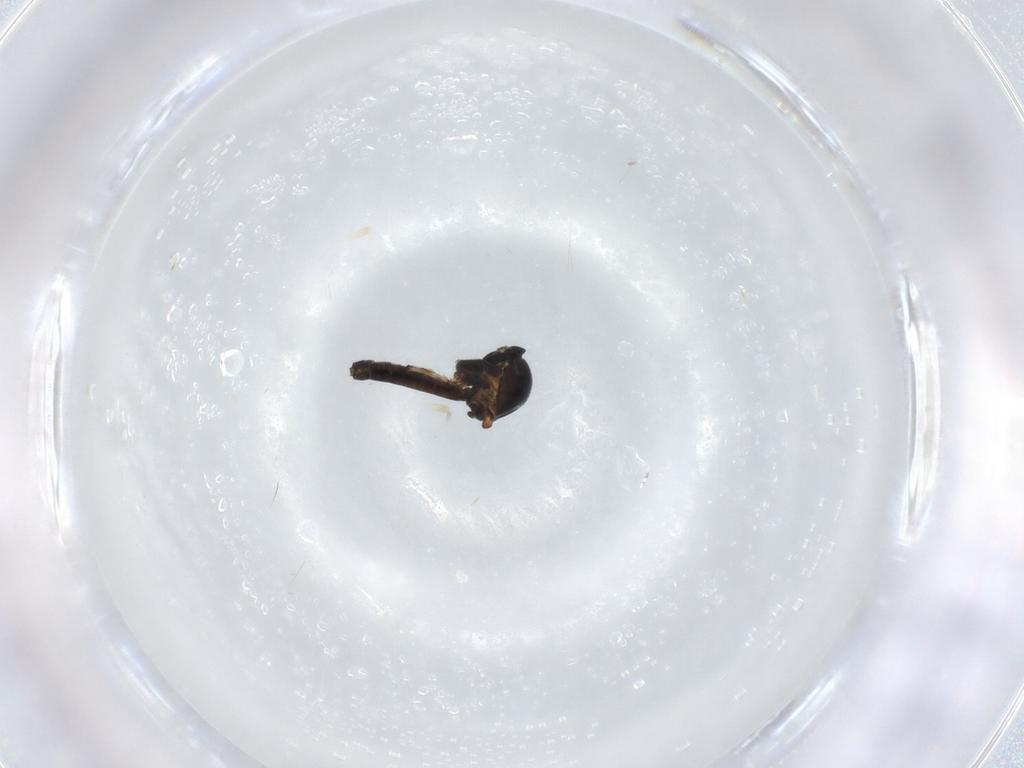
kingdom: Animalia
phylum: Arthropoda
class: Insecta
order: Diptera
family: Ceratopogonidae
